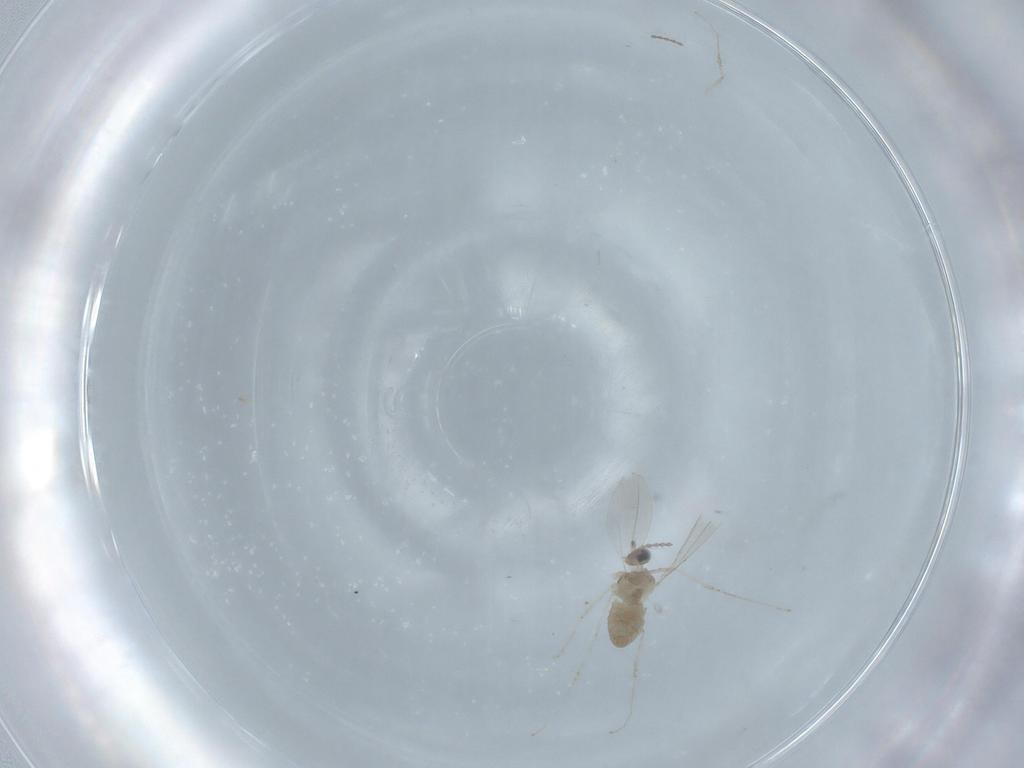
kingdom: Animalia
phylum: Arthropoda
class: Insecta
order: Diptera
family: Cecidomyiidae
